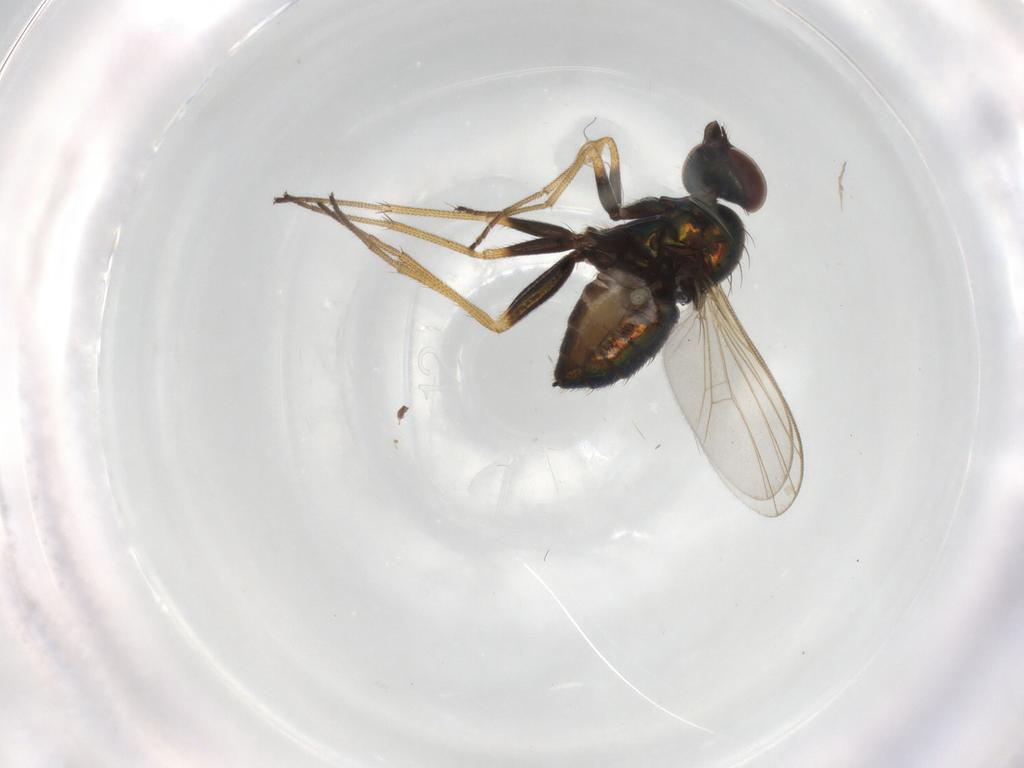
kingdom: Animalia
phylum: Arthropoda
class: Insecta
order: Diptera
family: Dolichopodidae
